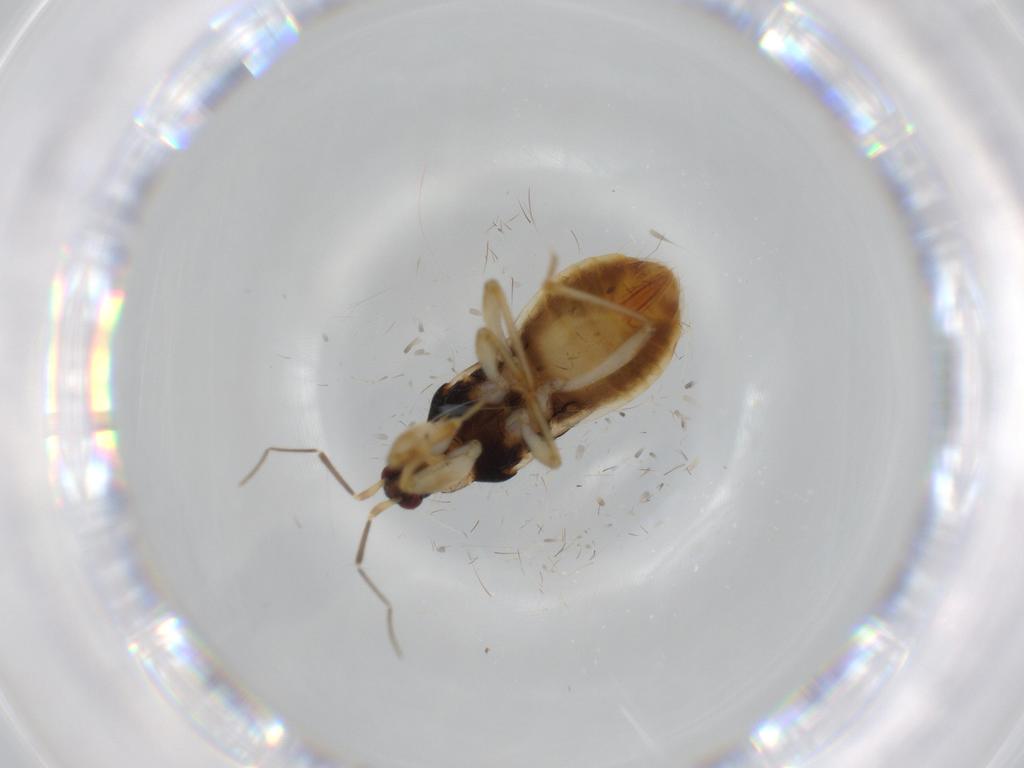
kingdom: Animalia
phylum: Arthropoda
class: Insecta
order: Hemiptera
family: Nabidae
